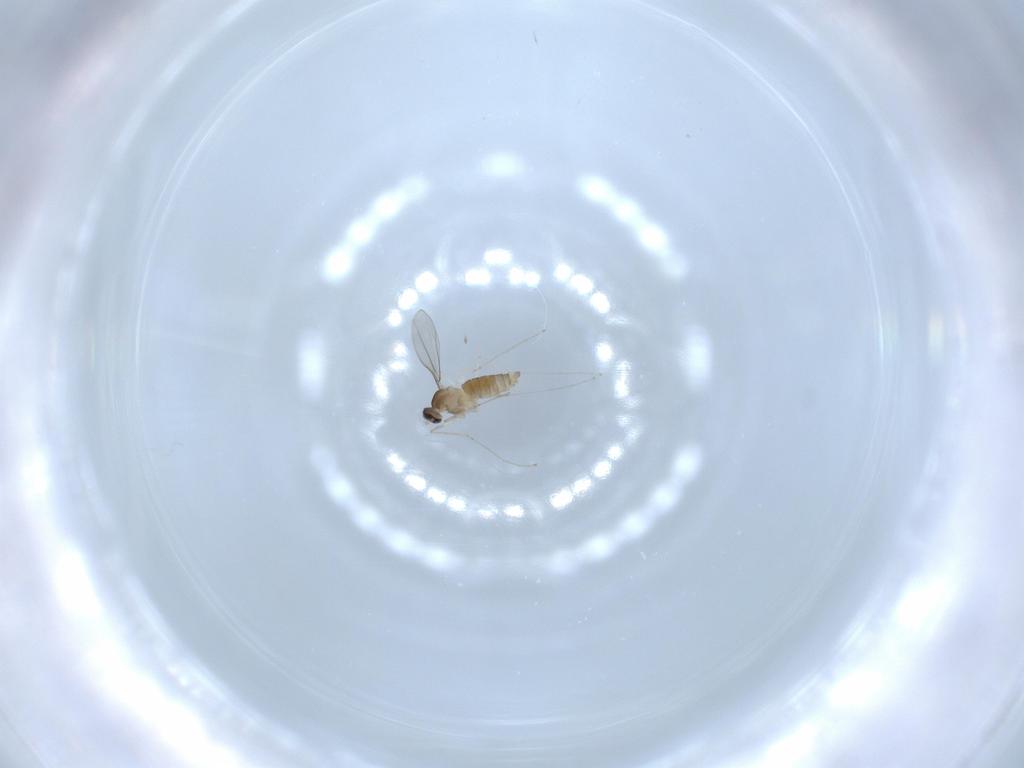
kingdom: Animalia
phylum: Arthropoda
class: Insecta
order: Diptera
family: Cecidomyiidae
